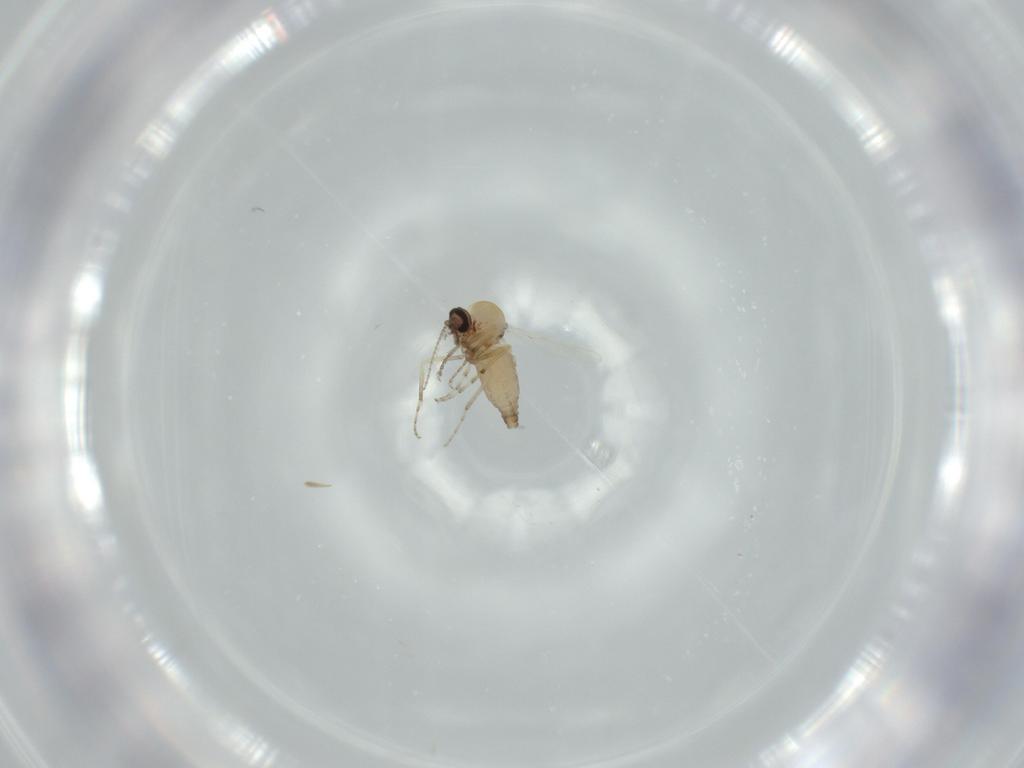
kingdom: Animalia
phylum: Arthropoda
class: Insecta
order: Diptera
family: Ceratopogonidae
